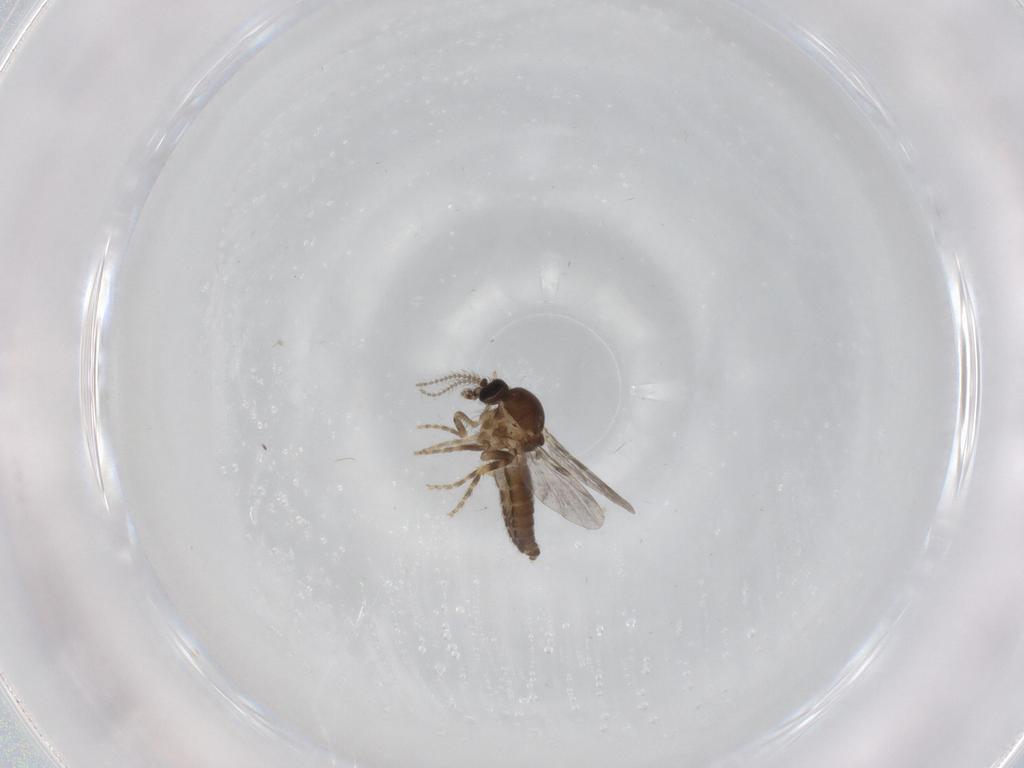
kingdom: Animalia
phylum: Arthropoda
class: Insecta
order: Diptera
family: Ceratopogonidae
